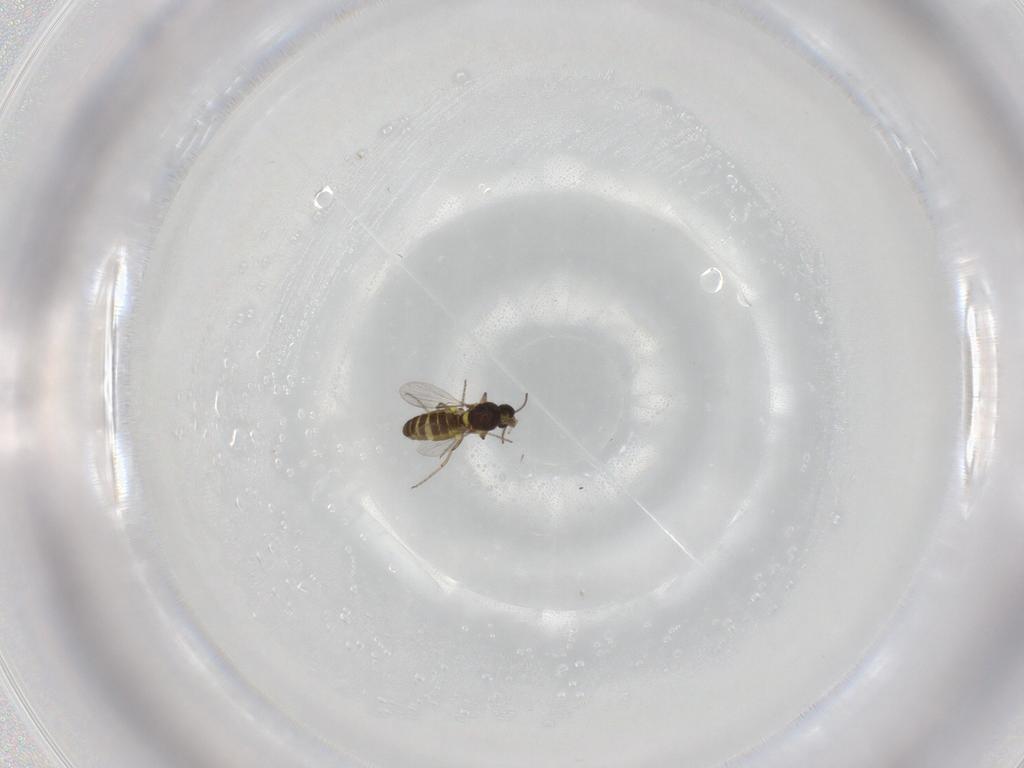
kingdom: Animalia
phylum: Arthropoda
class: Insecta
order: Diptera
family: Ceratopogonidae
